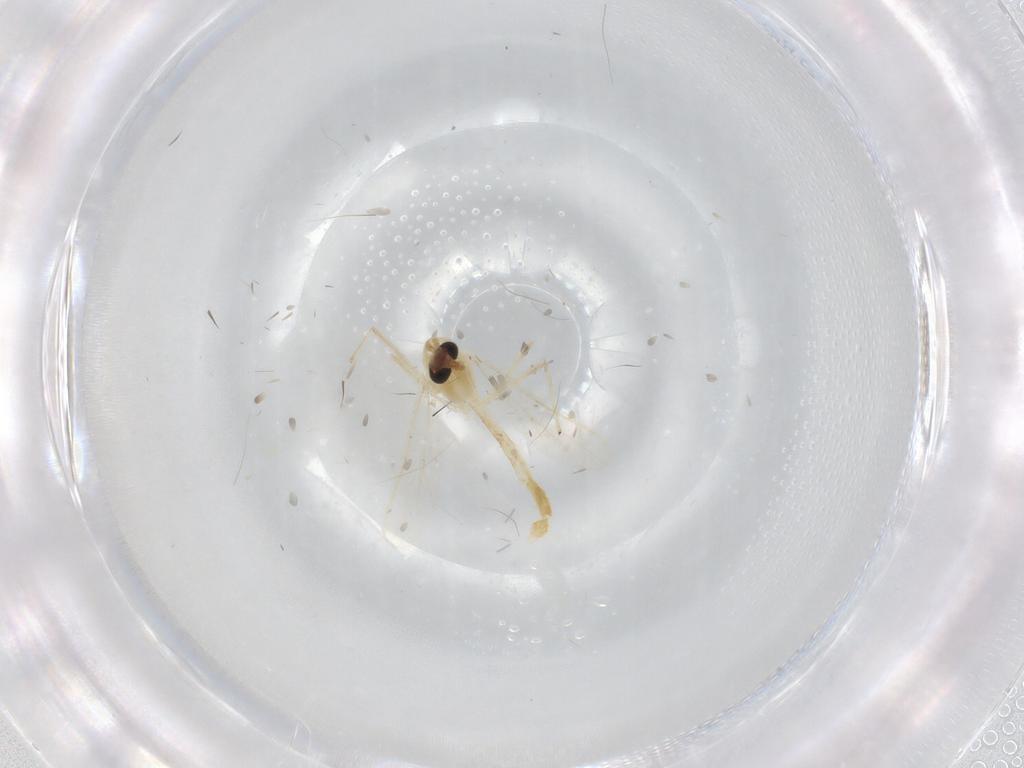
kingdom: Animalia
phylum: Arthropoda
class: Insecta
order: Diptera
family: Chironomidae
